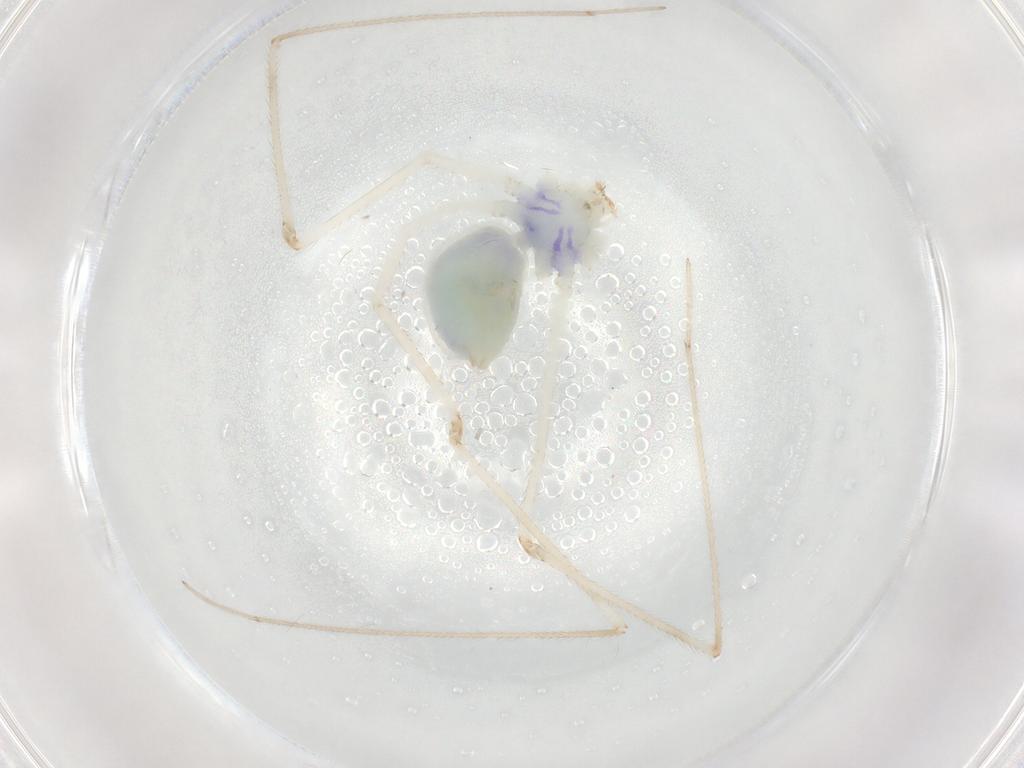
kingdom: Animalia
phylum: Arthropoda
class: Arachnida
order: Araneae
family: Pholcidae
